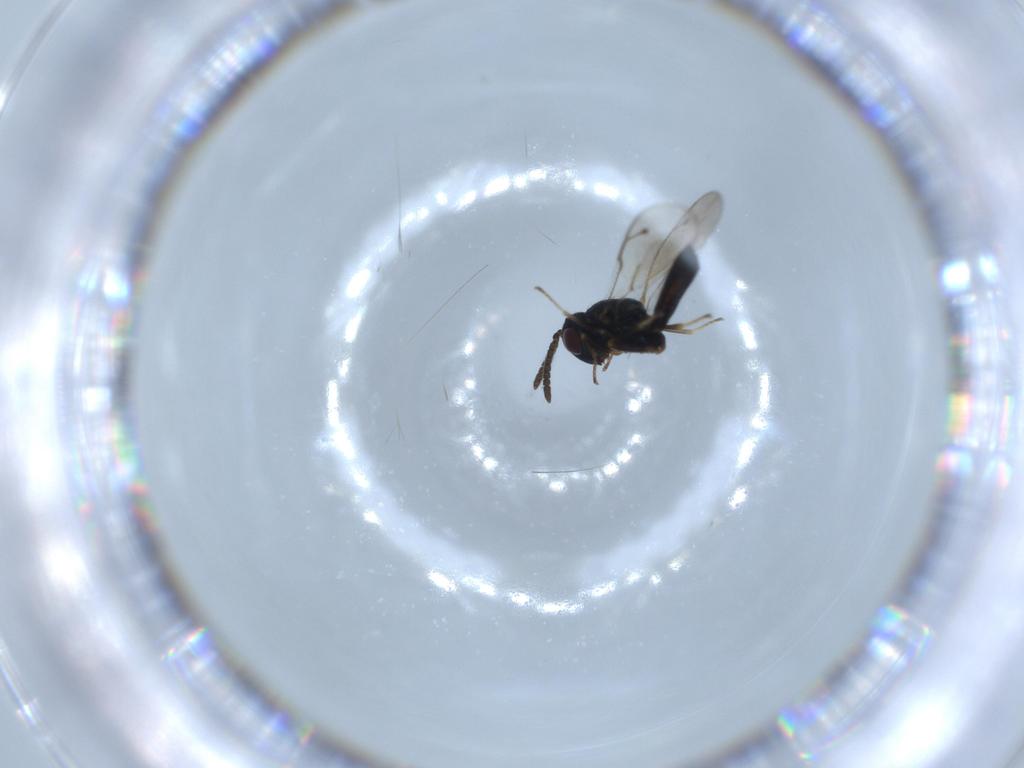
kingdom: Animalia
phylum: Arthropoda
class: Insecta
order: Hymenoptera
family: Pteromalidae
